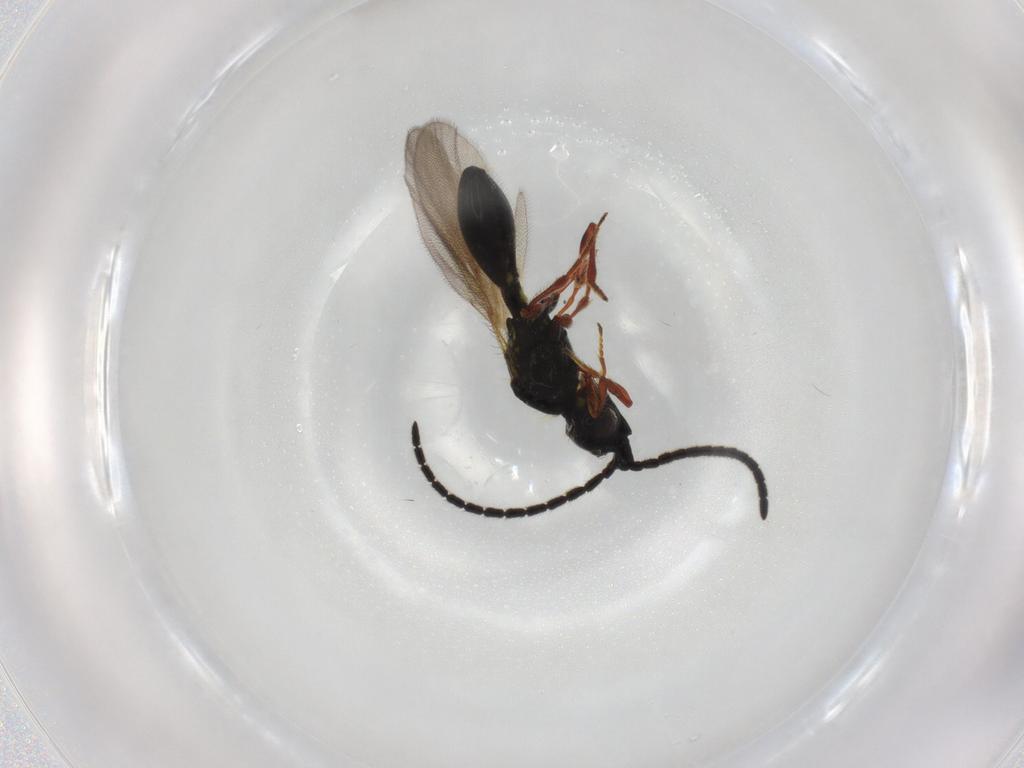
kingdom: Animalia
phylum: Arthropoda
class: Insecta
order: Hymenoptera
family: Diapriidae
